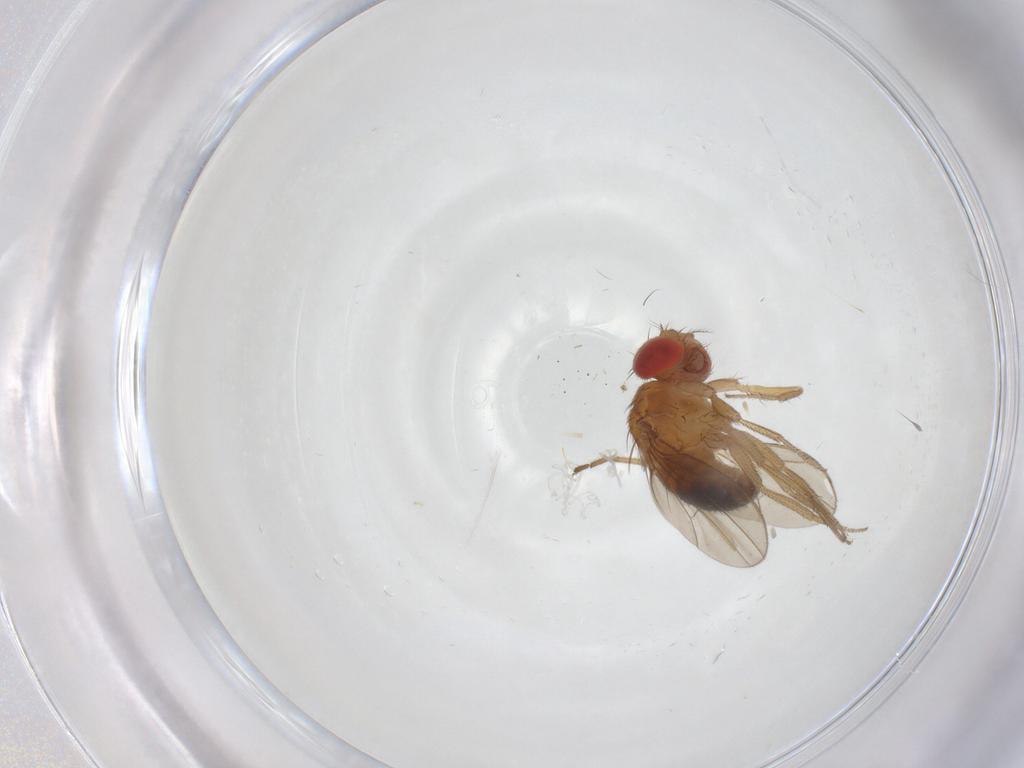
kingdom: Animalia
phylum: Arthropoda
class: Insecta
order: Diptera
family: Drosophilidae
